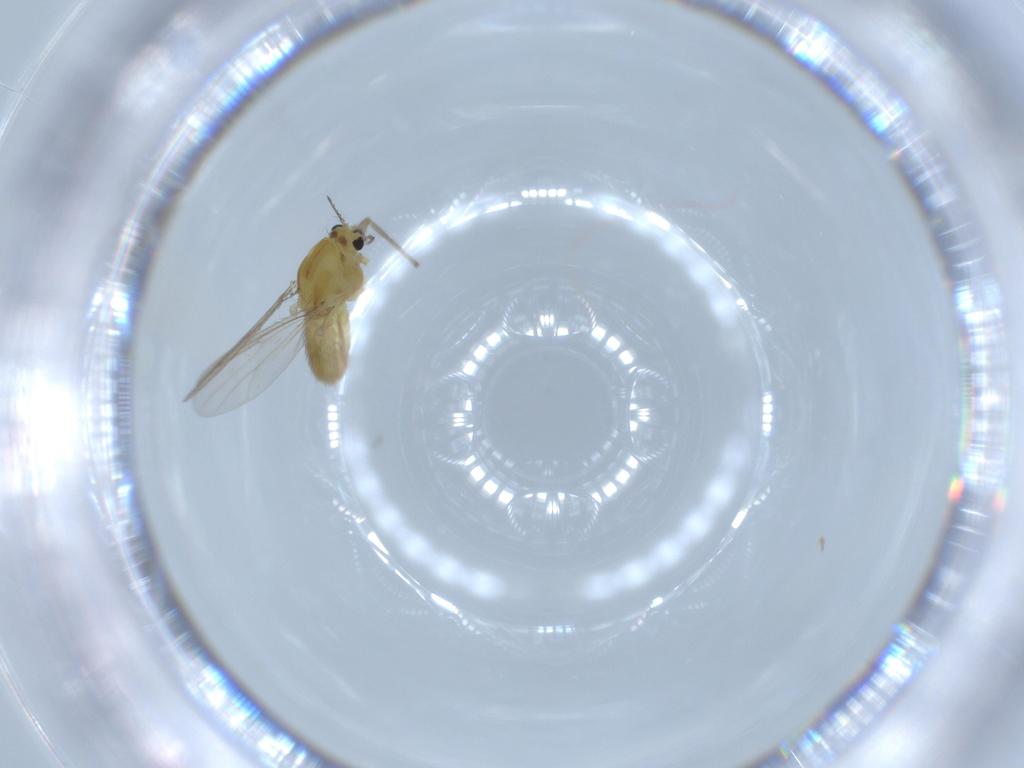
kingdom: Animalia
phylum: Arthropoda
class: Insecta
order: Diptera
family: Chironomidae
